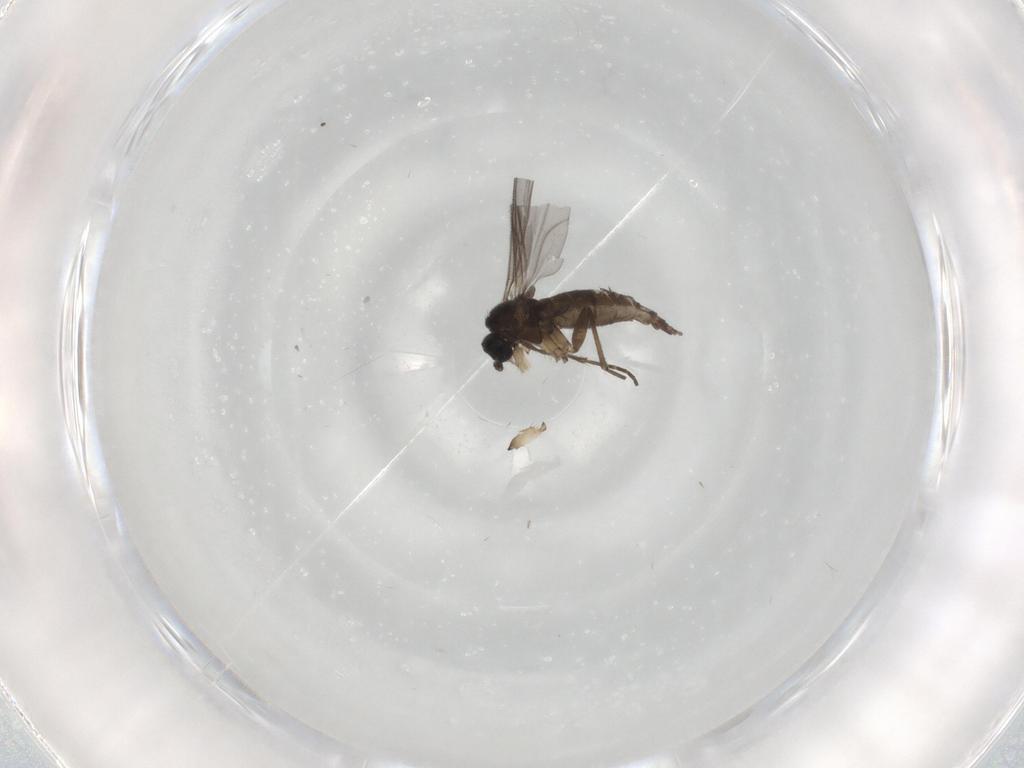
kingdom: Animalia
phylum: Arthropoda
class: Insecta
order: Diptera
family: Sciaridae
